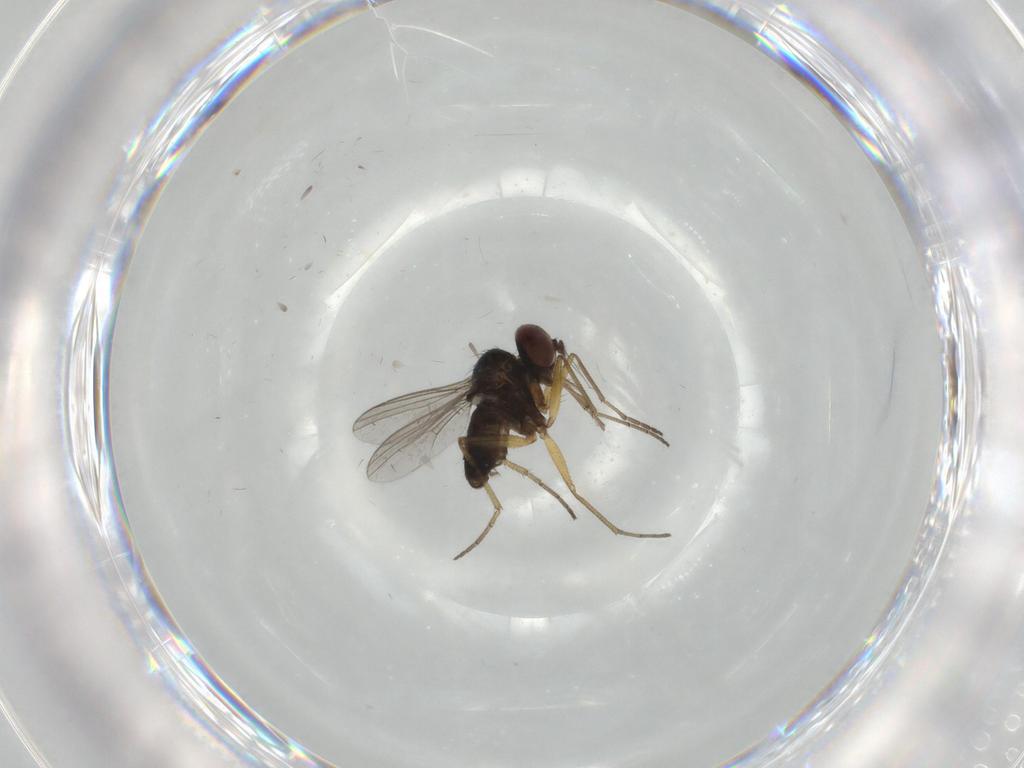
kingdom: Animalia
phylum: Arthropoda
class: Insecta
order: Diptera
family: Dolichopodidae
